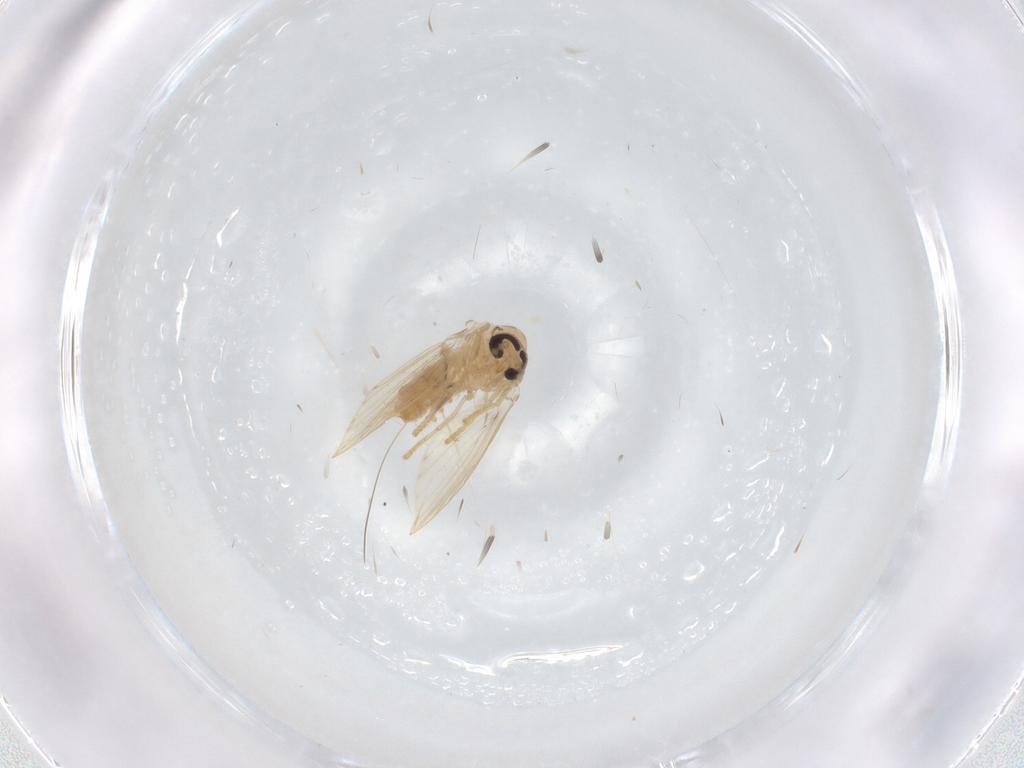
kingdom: Animalia
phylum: Arthropoda
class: Insecta
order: Diptera
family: Psychodidae
